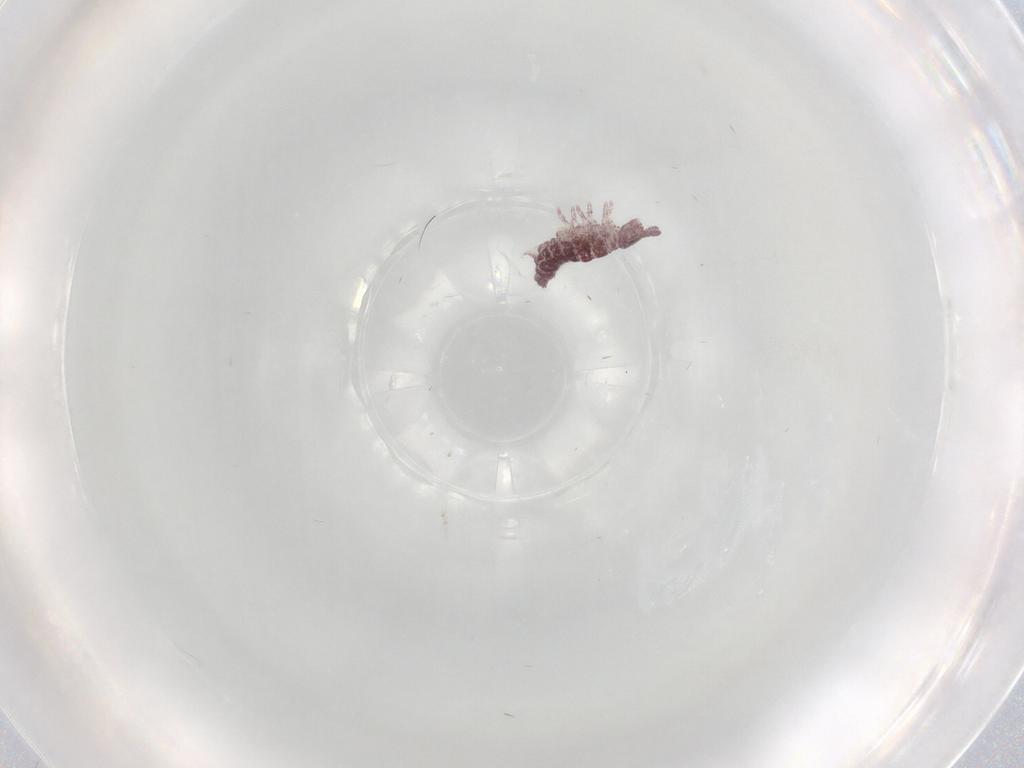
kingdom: Animalia
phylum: Arthropoda
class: Collembola
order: Poduromorpha
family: Hypogastruridae
